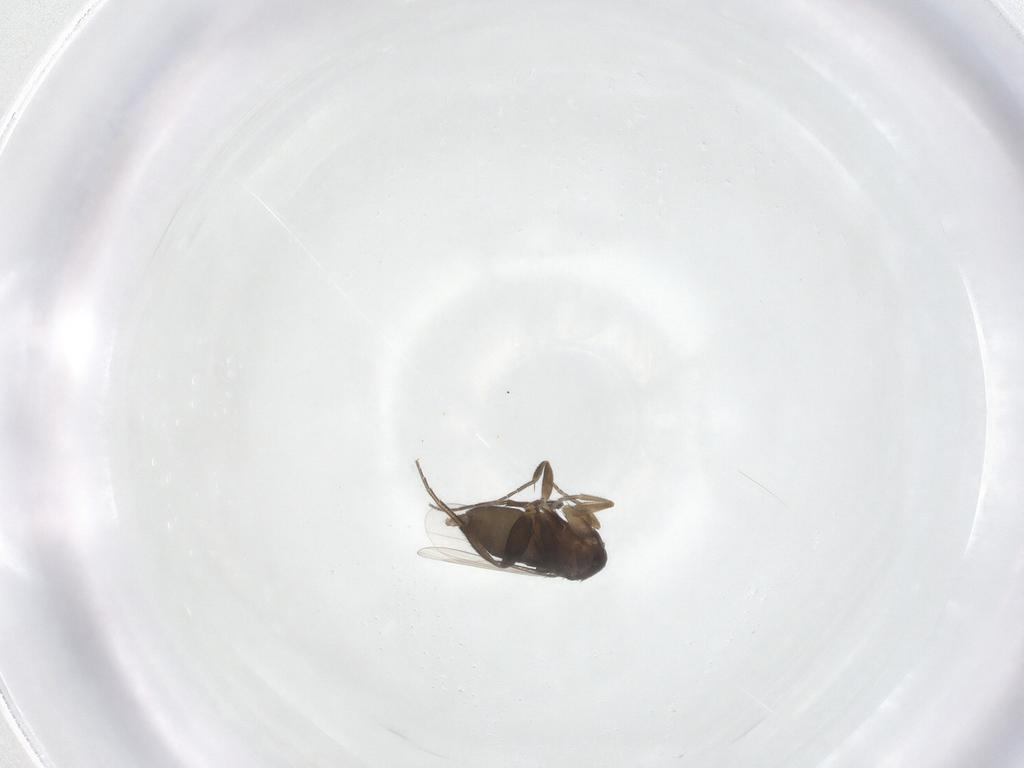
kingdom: Animalia
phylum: Arthropoda
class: Insecta
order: Diptera
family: Phoridae
